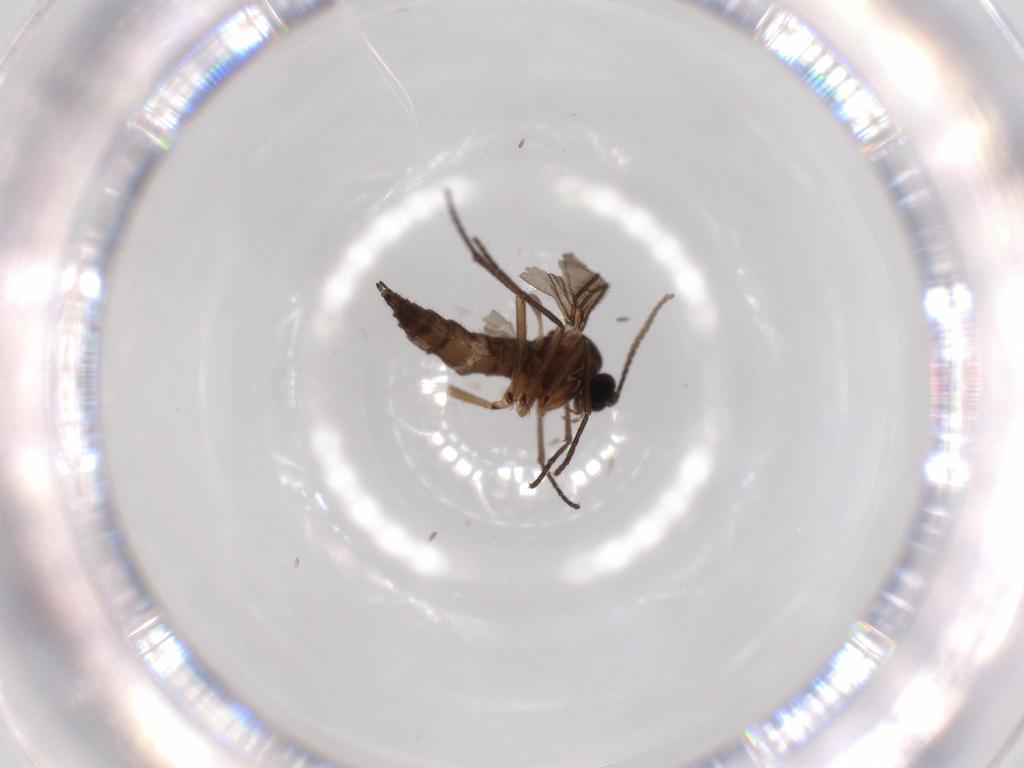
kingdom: Animalia
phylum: Arthropoda
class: Insecta
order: Diptera
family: Sciaridae
